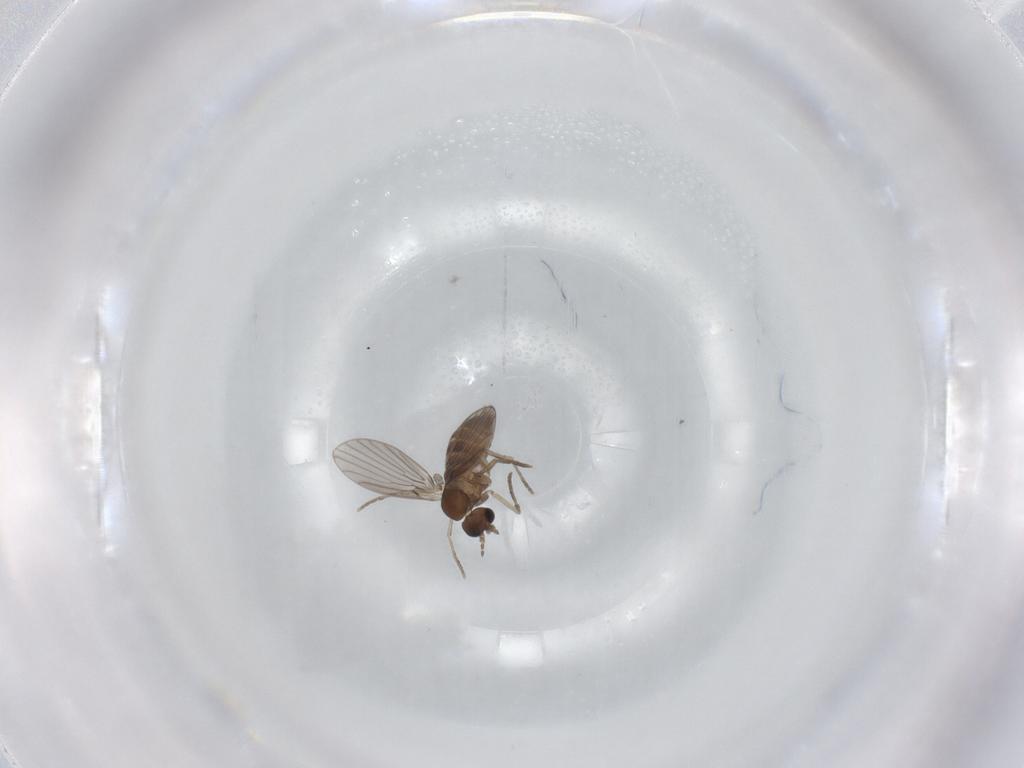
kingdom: Animalia
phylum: Arthropoda
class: Insecta
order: Diptera
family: Psychodidae
